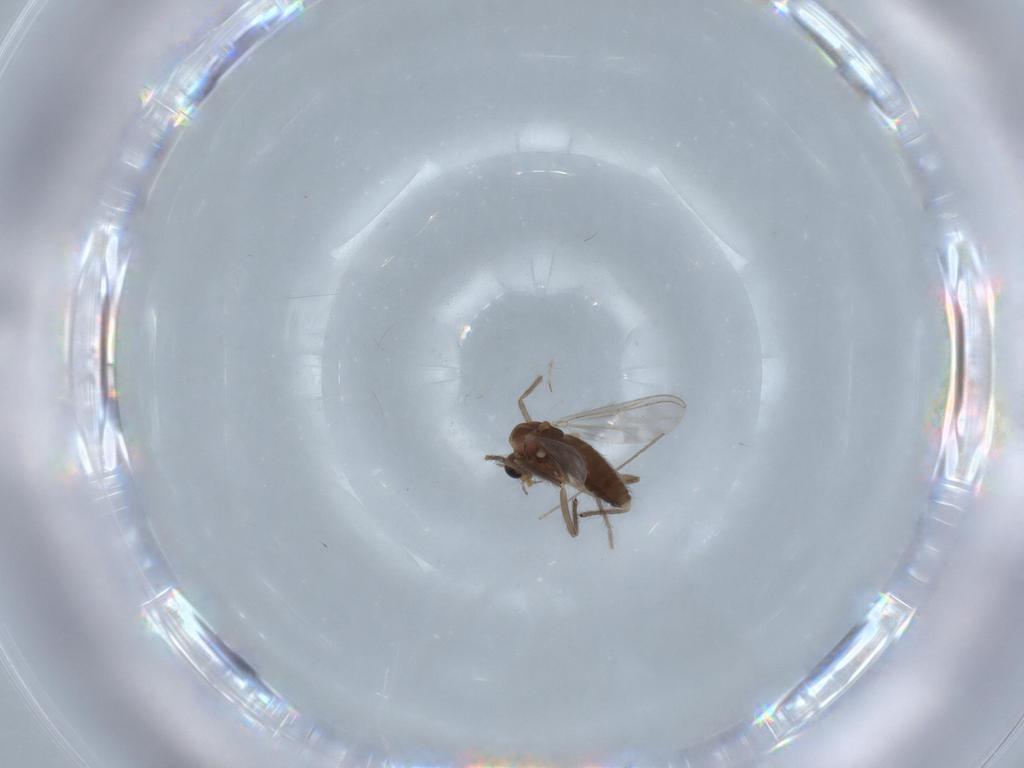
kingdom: Animalia
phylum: Arthropoda
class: Insecta
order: Diptera
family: Chironomidae
